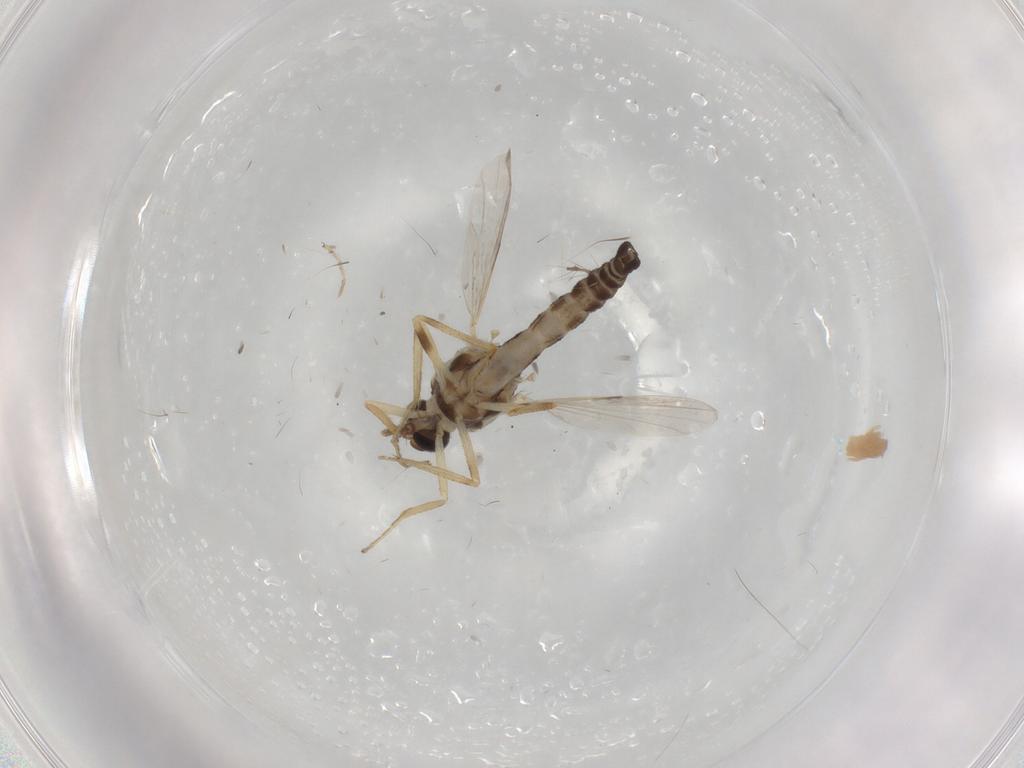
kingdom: Animalia
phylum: Arthropoda
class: Insecta
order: Diptera
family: Ceratopogonidae
